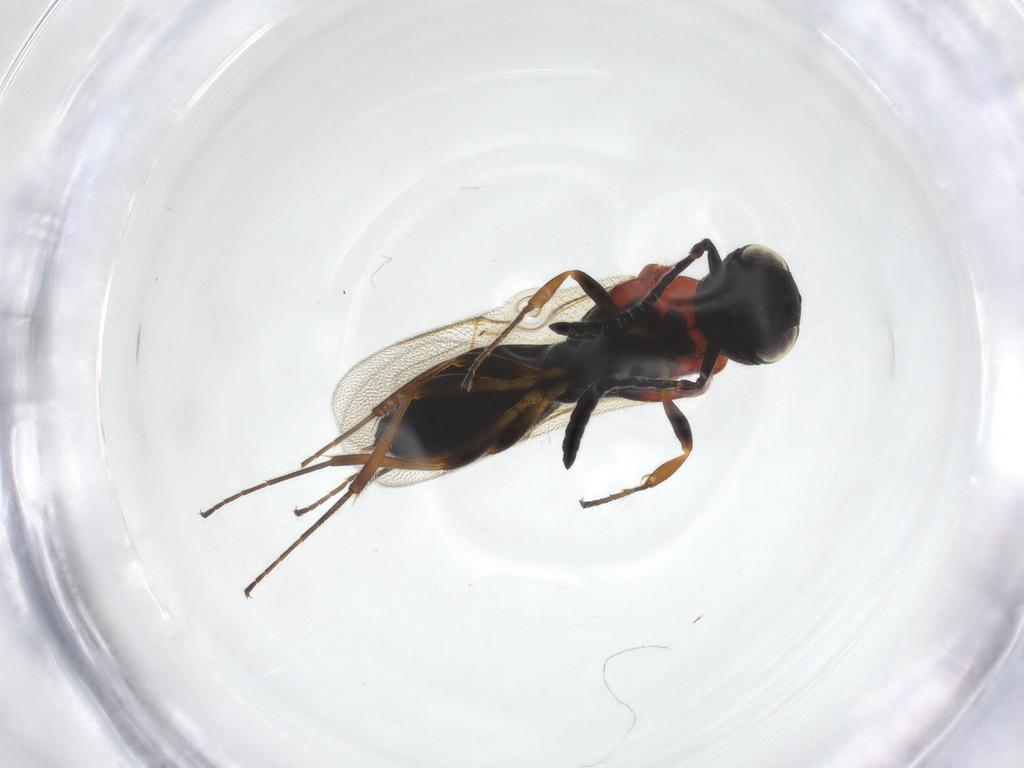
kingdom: Animalia
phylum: Arthropoda
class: Insecta
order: Hymenoptera
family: Scelionidae
